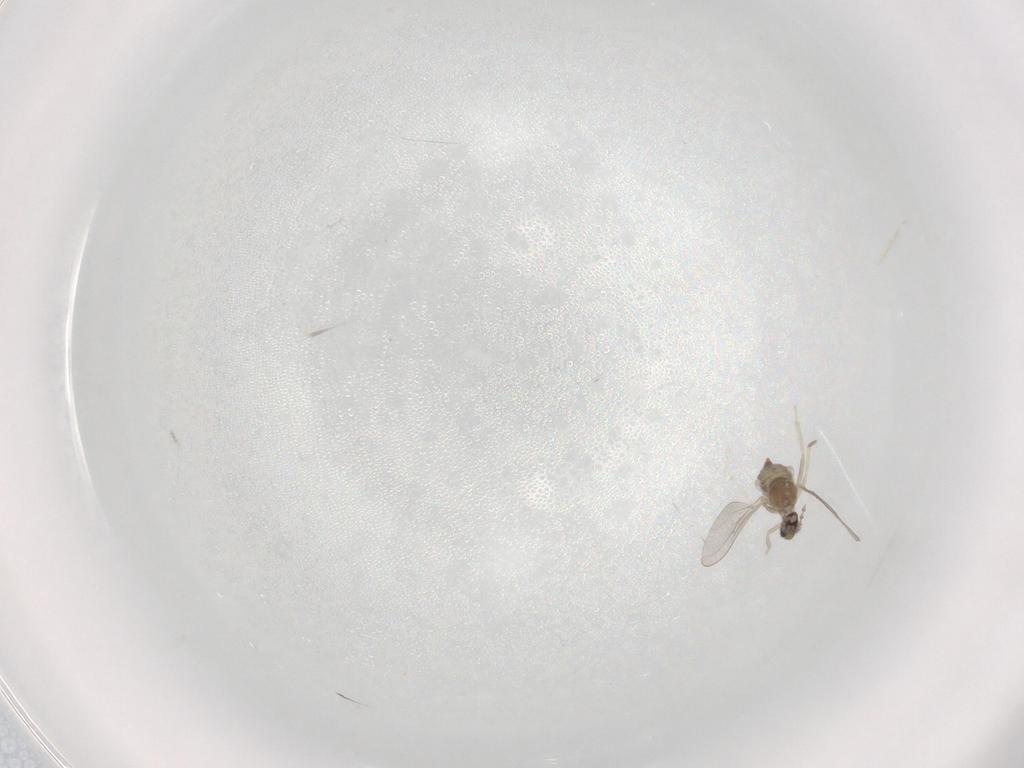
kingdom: Animalia
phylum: Arthropoda
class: Insecta
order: Diptera
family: Cecidomyiidae
